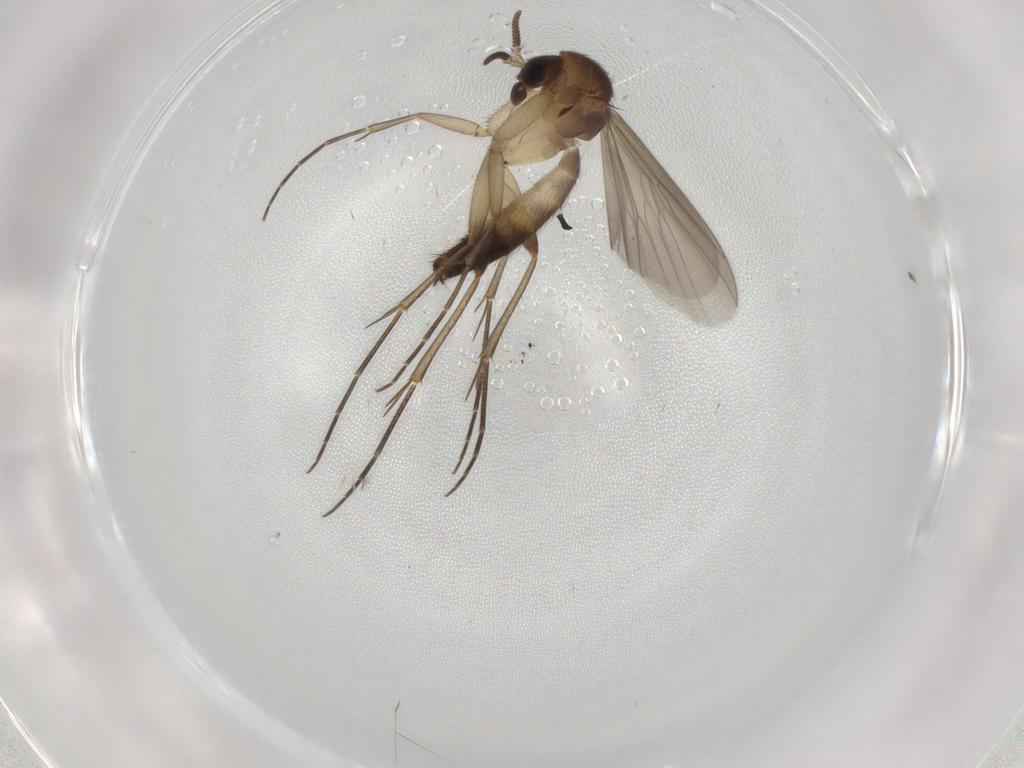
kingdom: Animalia
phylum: Arthropoda
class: Insecta
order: Diptera
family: Mycetophilidae
